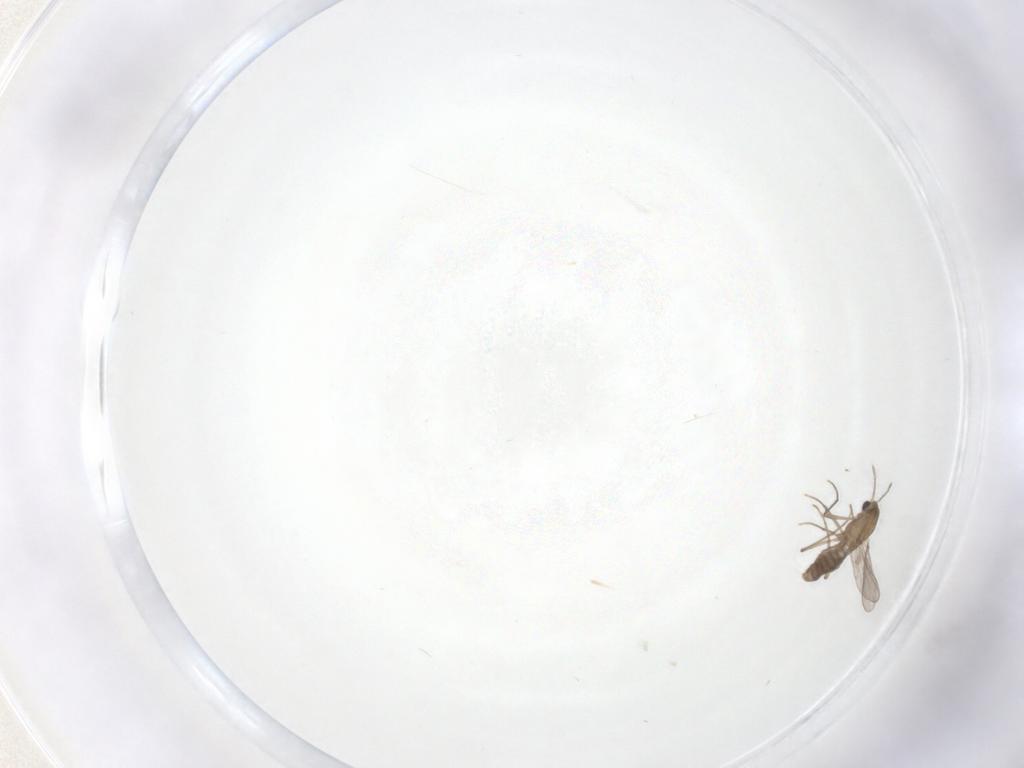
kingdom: Animalia
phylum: Arthropoda
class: Insecta
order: Diptera
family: Chironomidae
